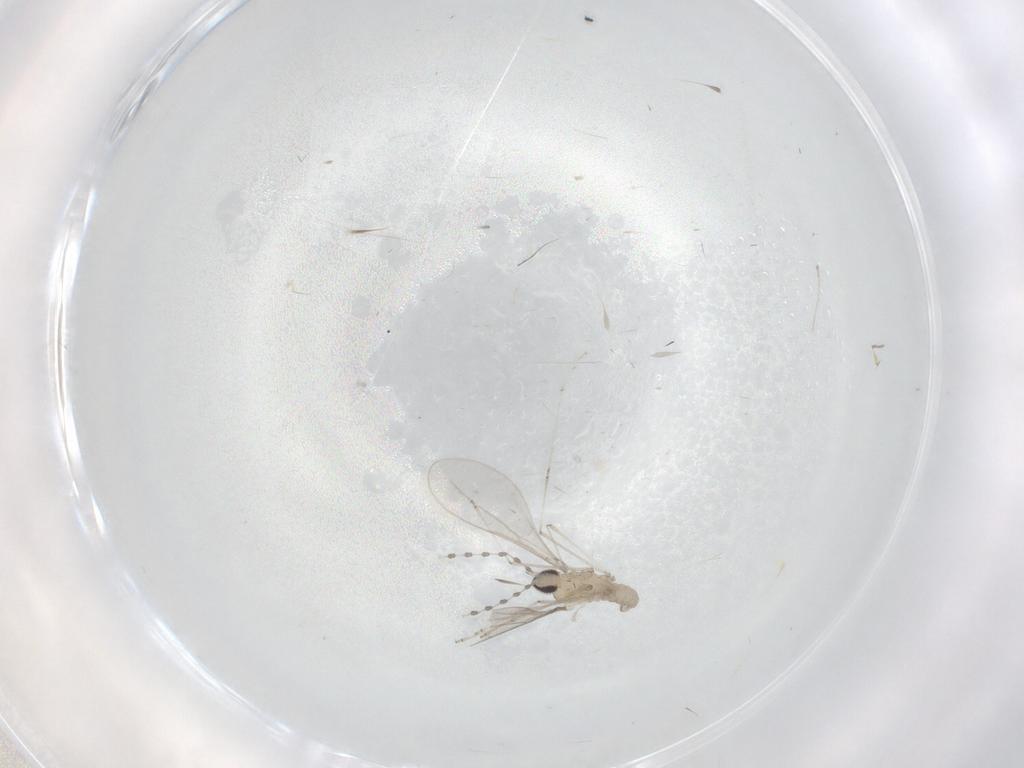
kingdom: Animalia
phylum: Arthropoda
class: Insecta
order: Diptera
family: Cecidomyiidae
